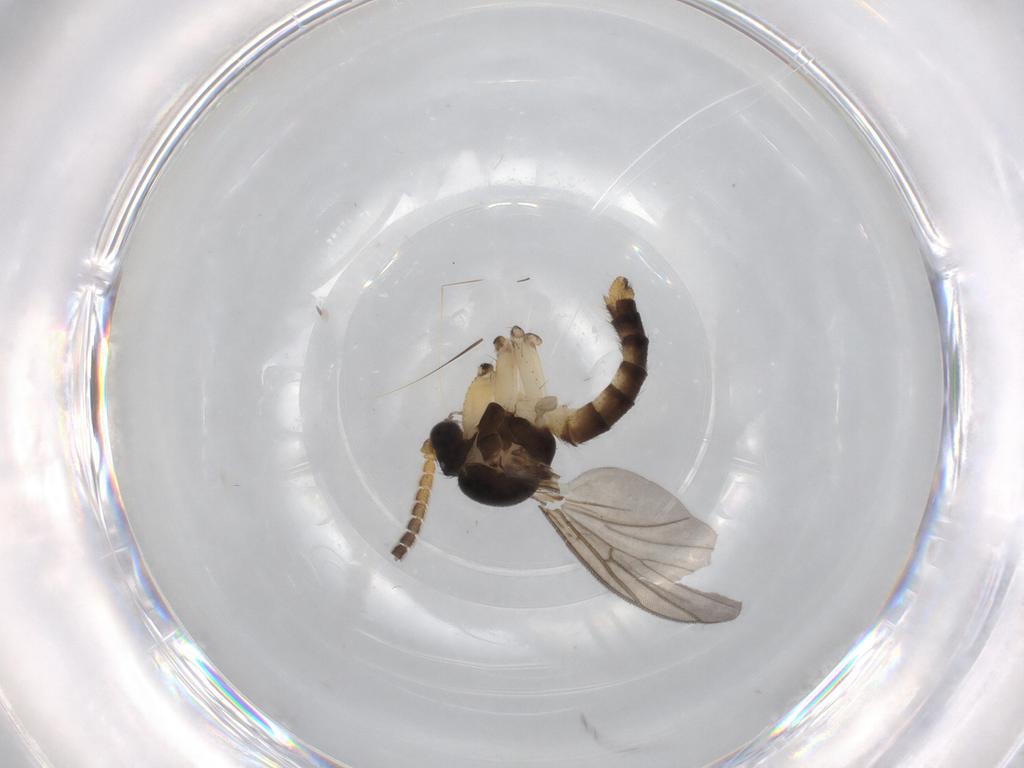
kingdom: Animalia
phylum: Arthropoda
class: Insecta
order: Diptera
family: Sciaridae
